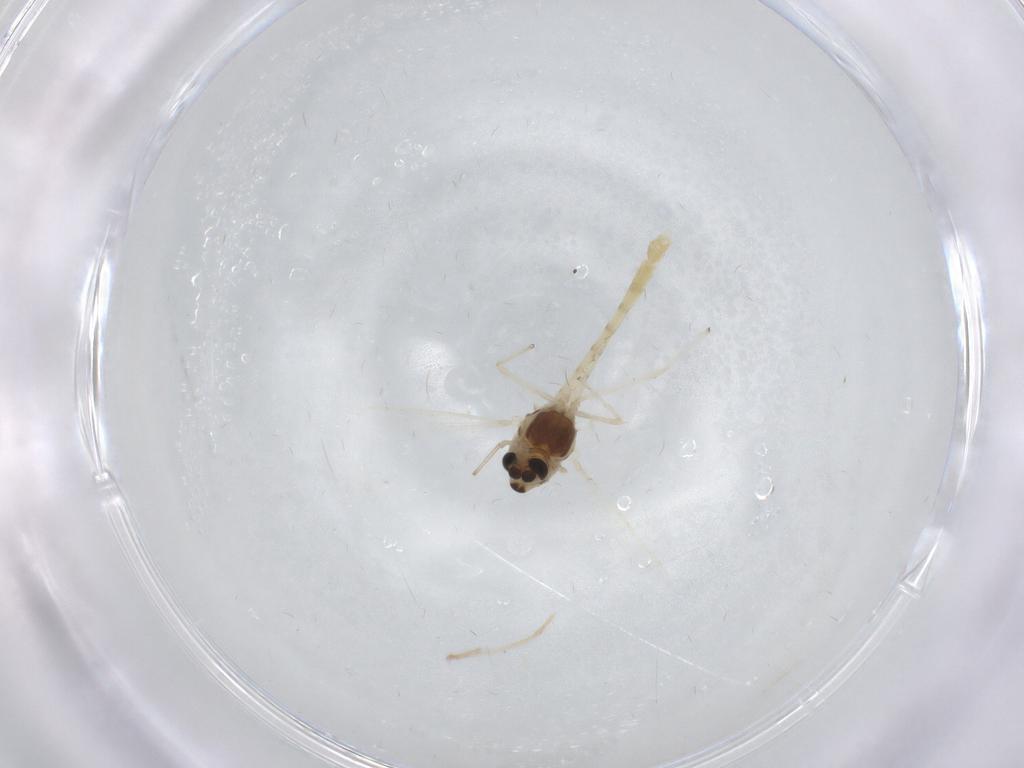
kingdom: Animalia
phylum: Arthropoda
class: Insecta
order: Diptera
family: Chironomidae
